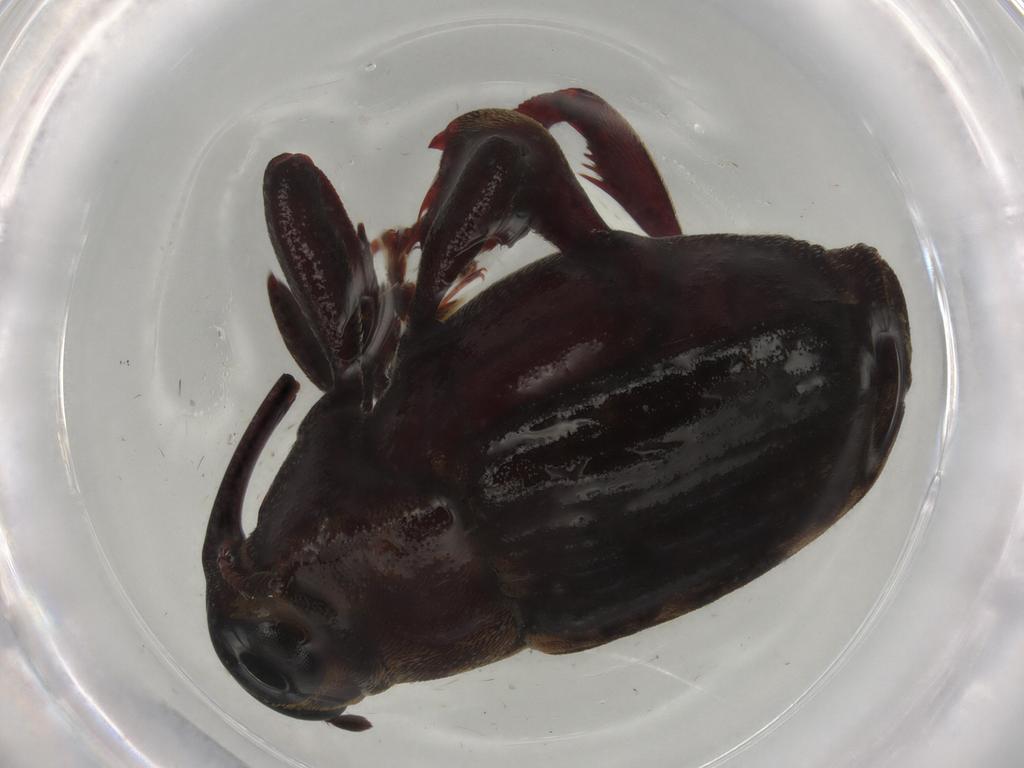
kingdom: Animalia
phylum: Arthropoda
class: Insecta
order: Coleoptera
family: Curculionidae
